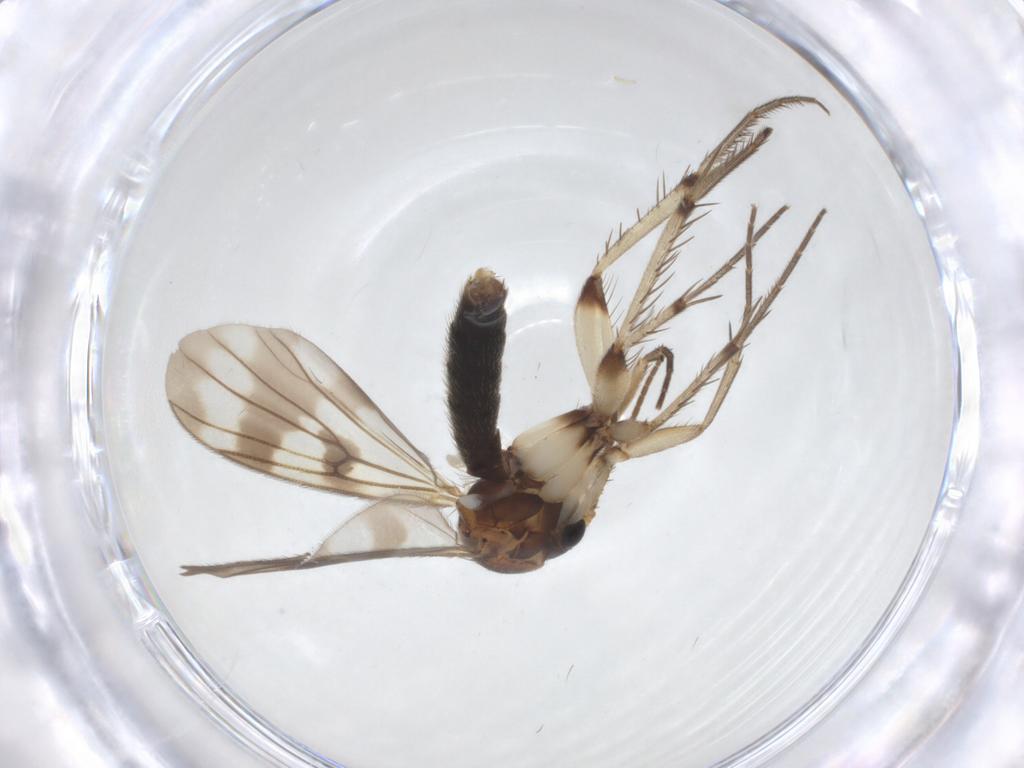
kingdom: Animalia
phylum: Arthropoda
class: Insecta
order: Diptera
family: Mycetophilidae
